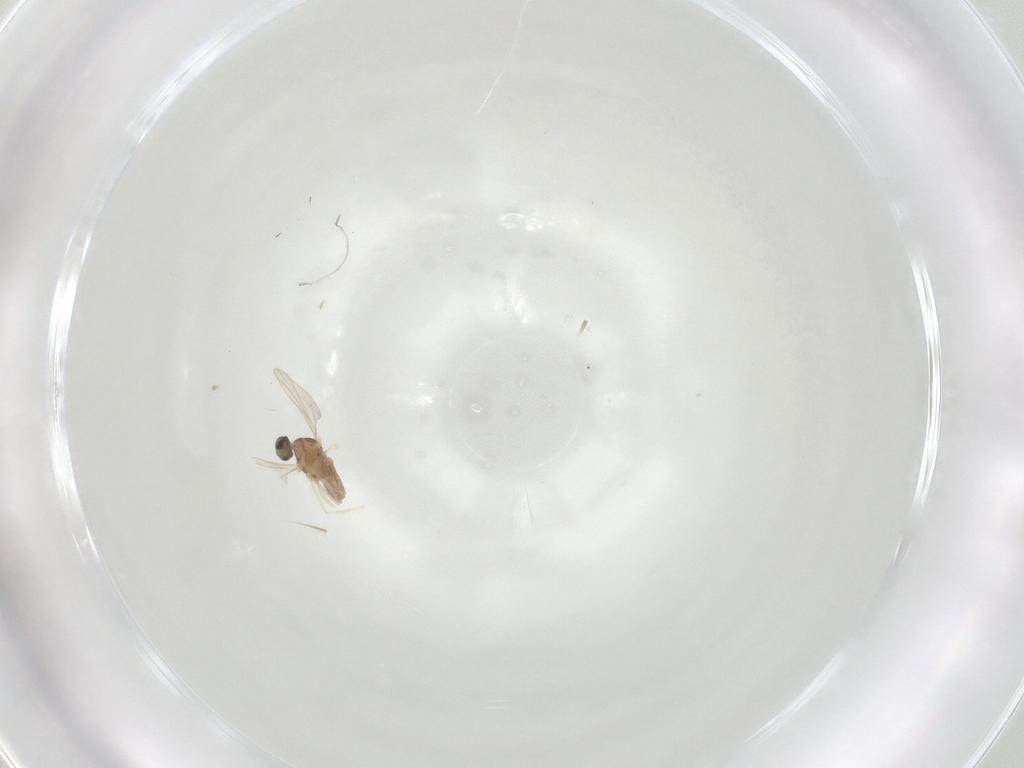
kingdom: Animalia
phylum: Arthropoda
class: Insecta
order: Diptera
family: Cecidomyiidae
